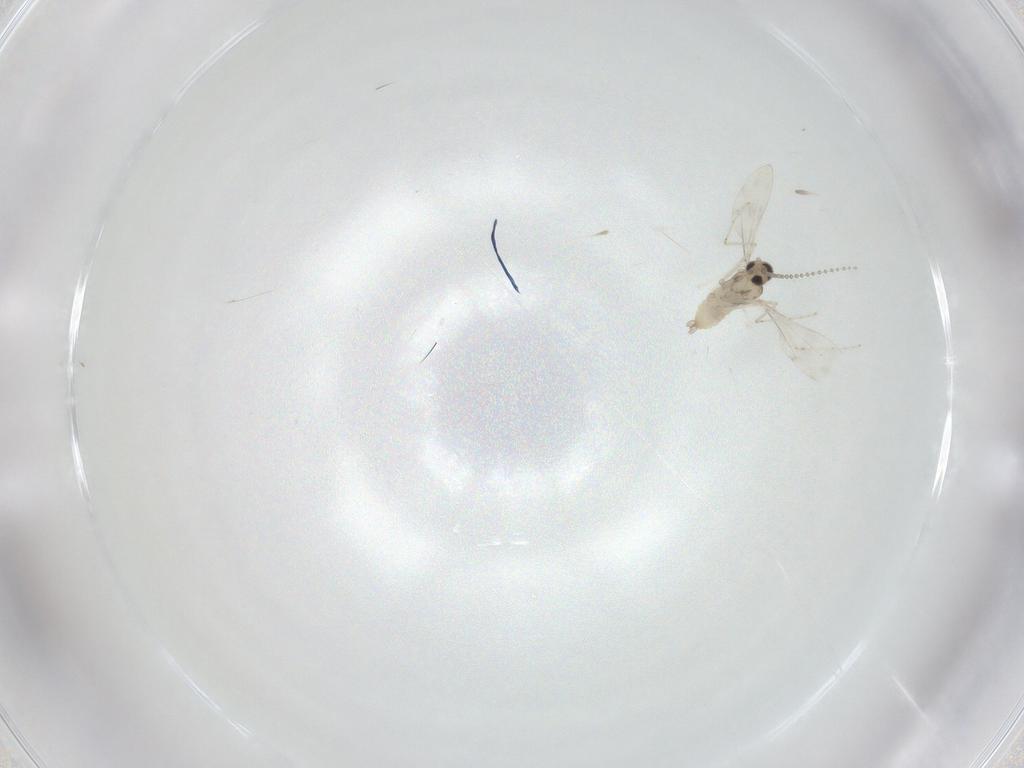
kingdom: Animalia
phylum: Arthropoda
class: Insecta
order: Diptera
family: Cecidomyiidae
